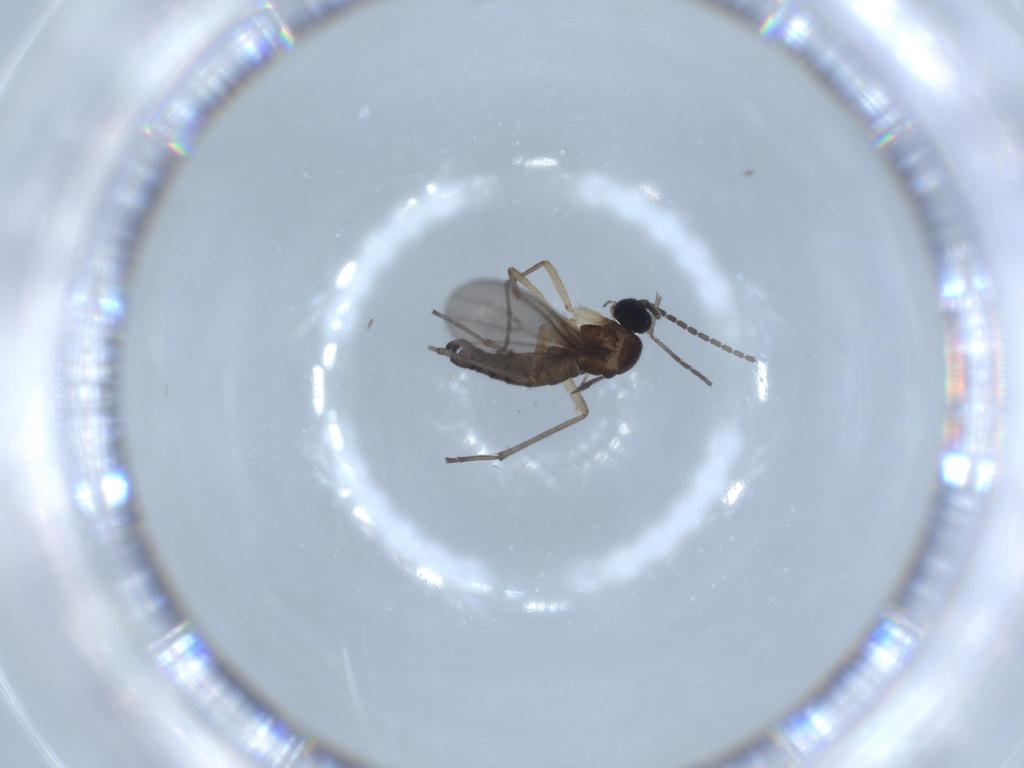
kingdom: Animalia
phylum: Arthropoda
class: Insecta
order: Diptera
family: Sciaridae
